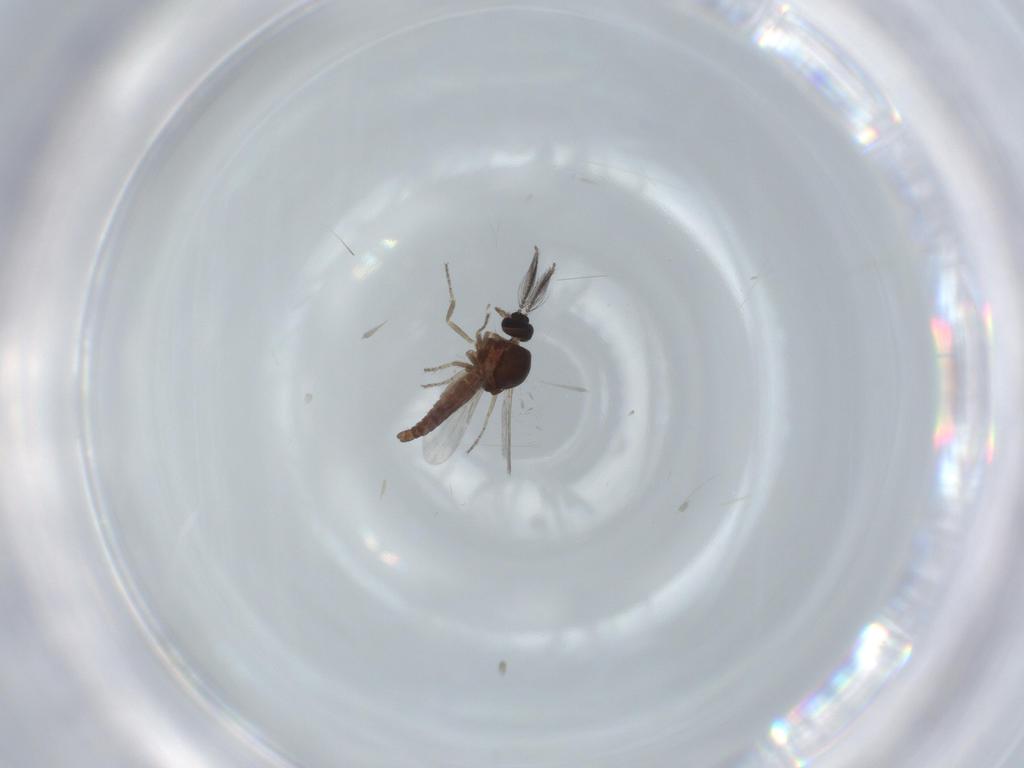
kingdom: Animalia
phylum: Arthropoda
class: Insecta
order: Diptera
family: Ceratopogonidae
